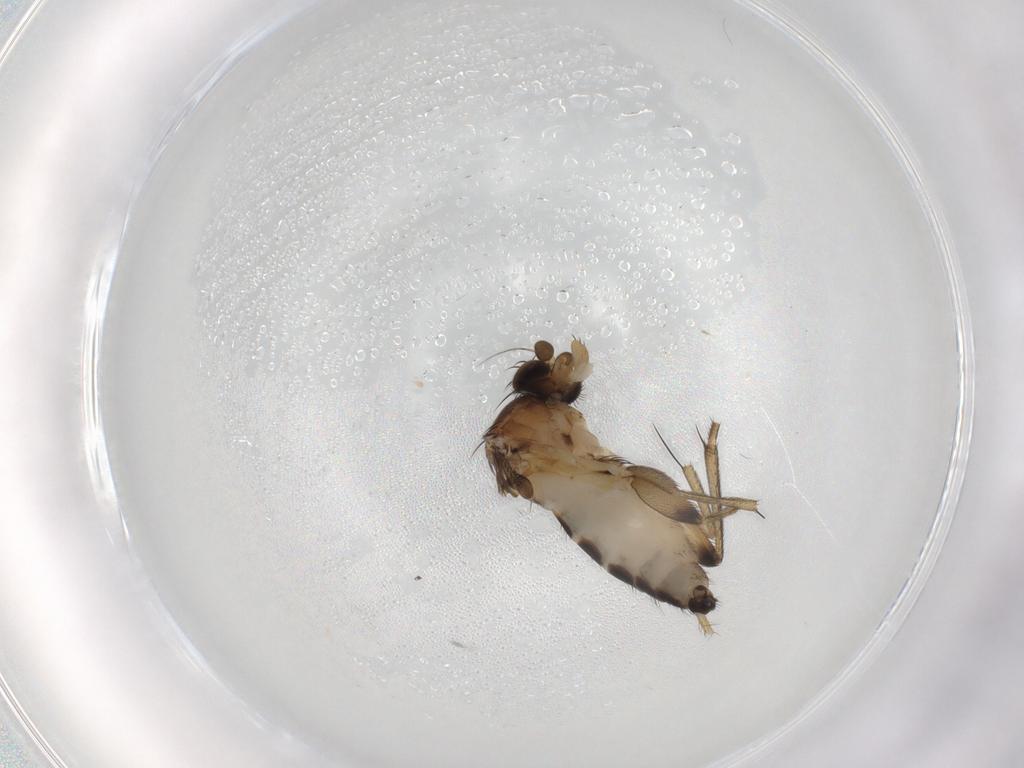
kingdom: Animalia
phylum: Arthropoda
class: Insecta
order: Diptera
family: Phoridae
